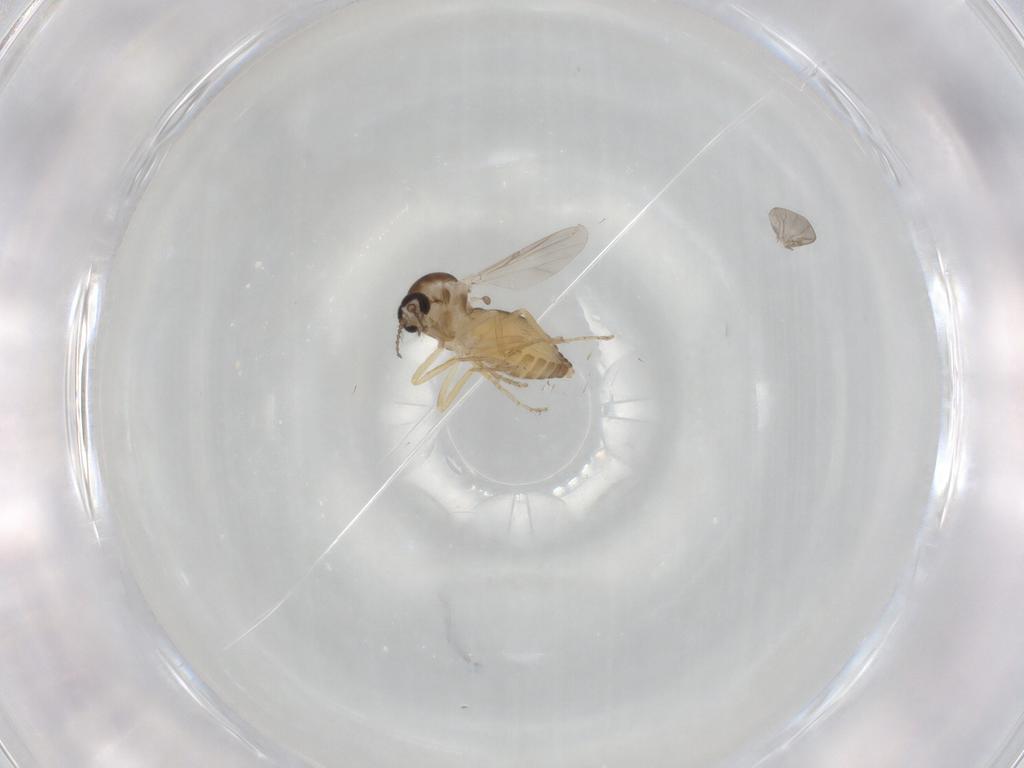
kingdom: Animalia
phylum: Arthropoda
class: Insecta
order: Diptera
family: Ceratopogonidae
